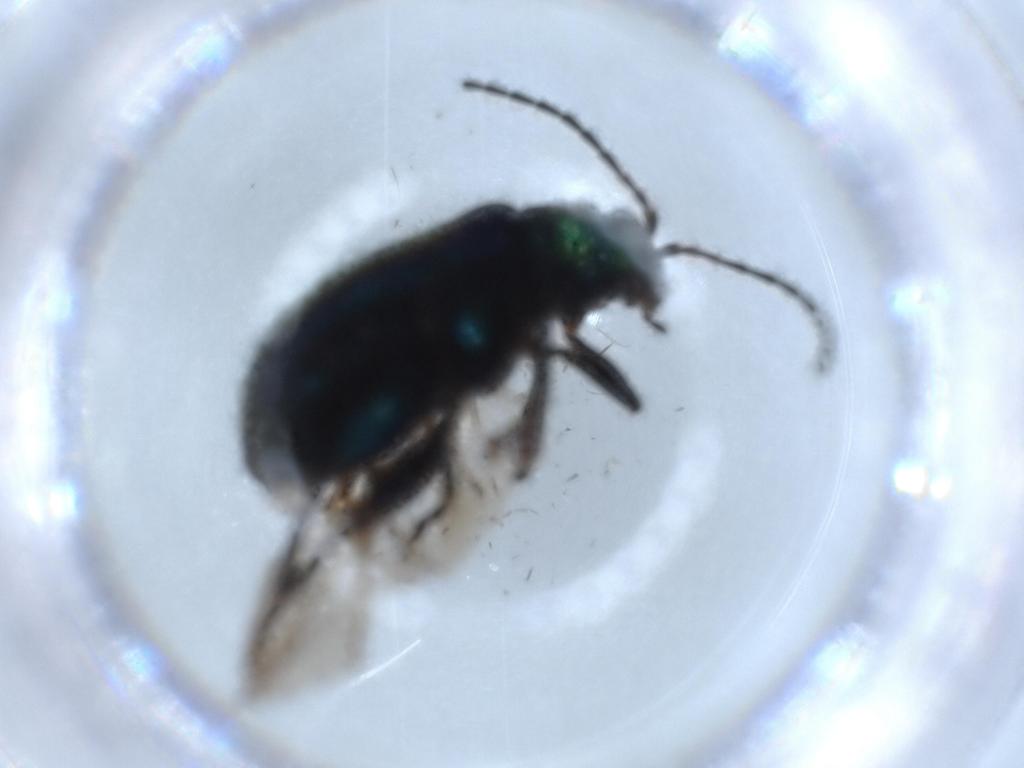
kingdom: Animalia
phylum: Arthropoda
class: Insecta
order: Coleoptera
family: Chrysomelidae
